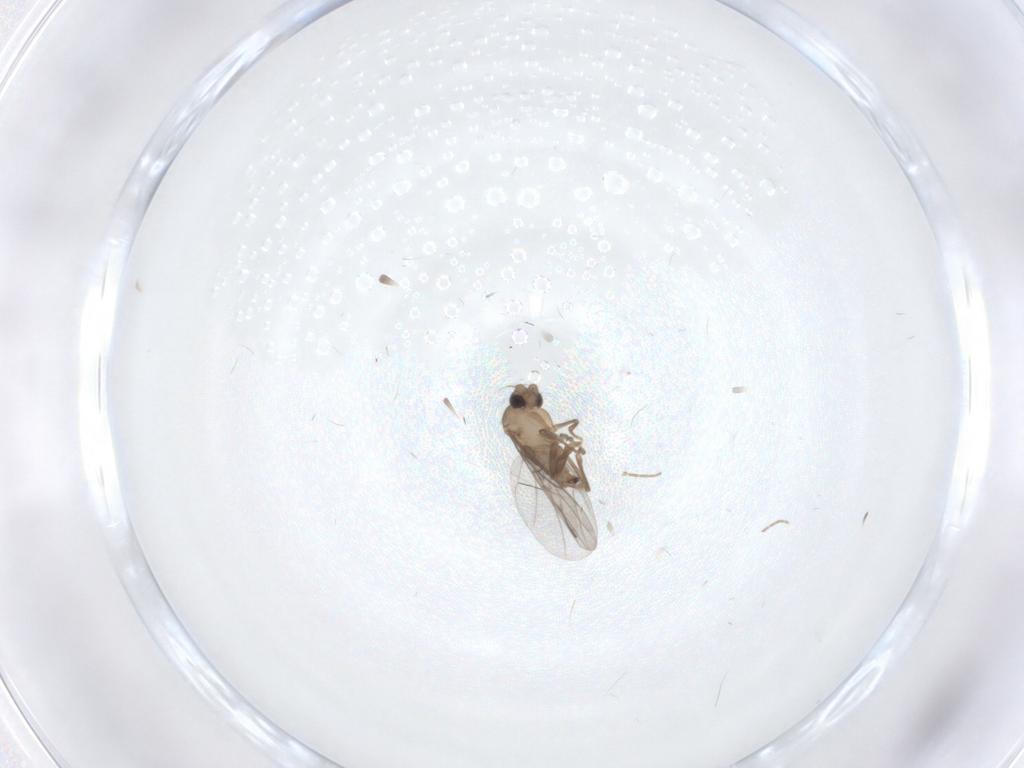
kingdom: Animalia
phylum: Arthropoda
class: Insecta
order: Diptera
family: Cecidomyiidae
